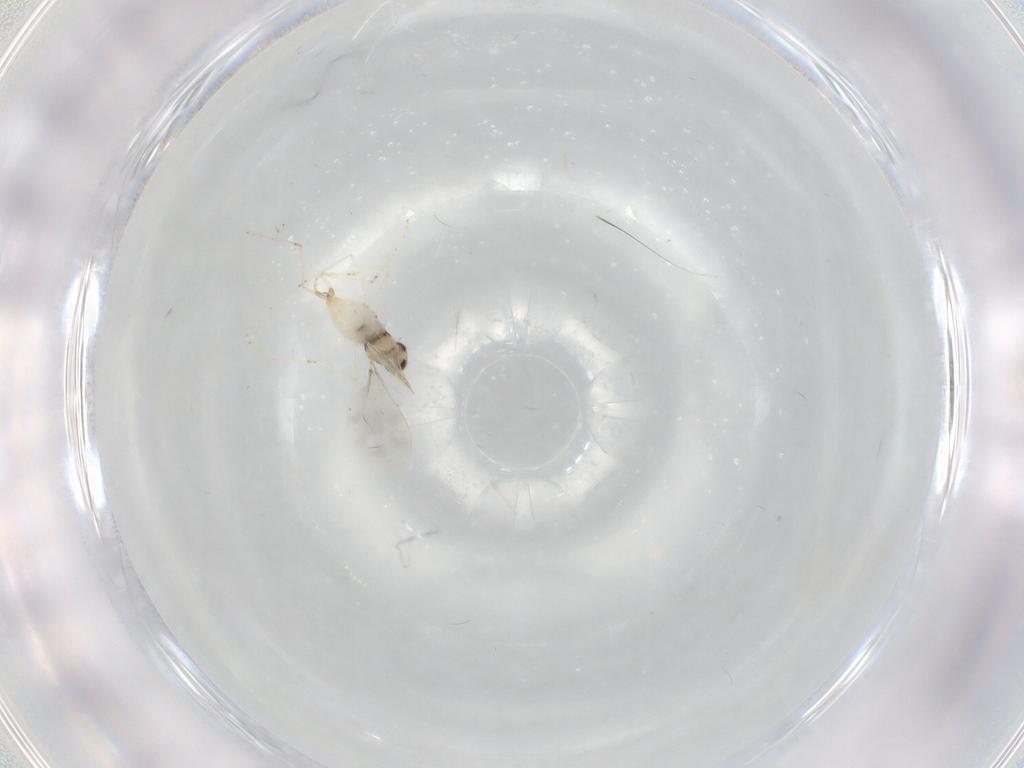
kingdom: Animalia
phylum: Arthropoda
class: Insecta
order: Diptera
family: Cecidomyiidae
